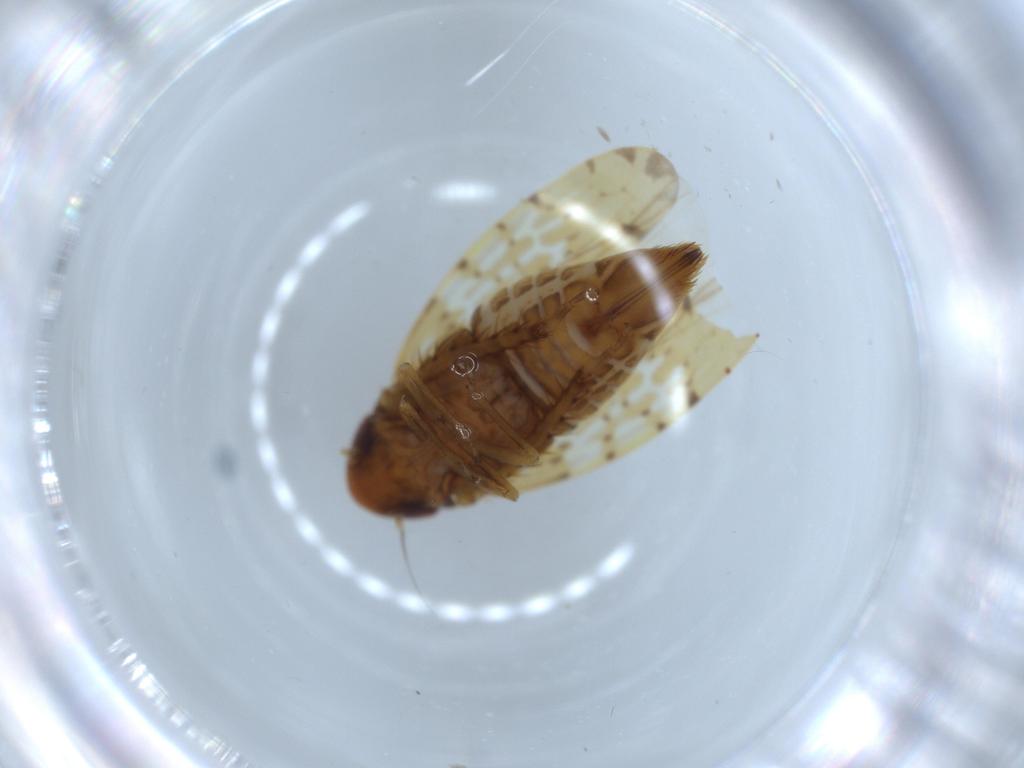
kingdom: Animalia
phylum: Arthropoda
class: Insecta
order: Hemiptera
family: Cicadellidae
